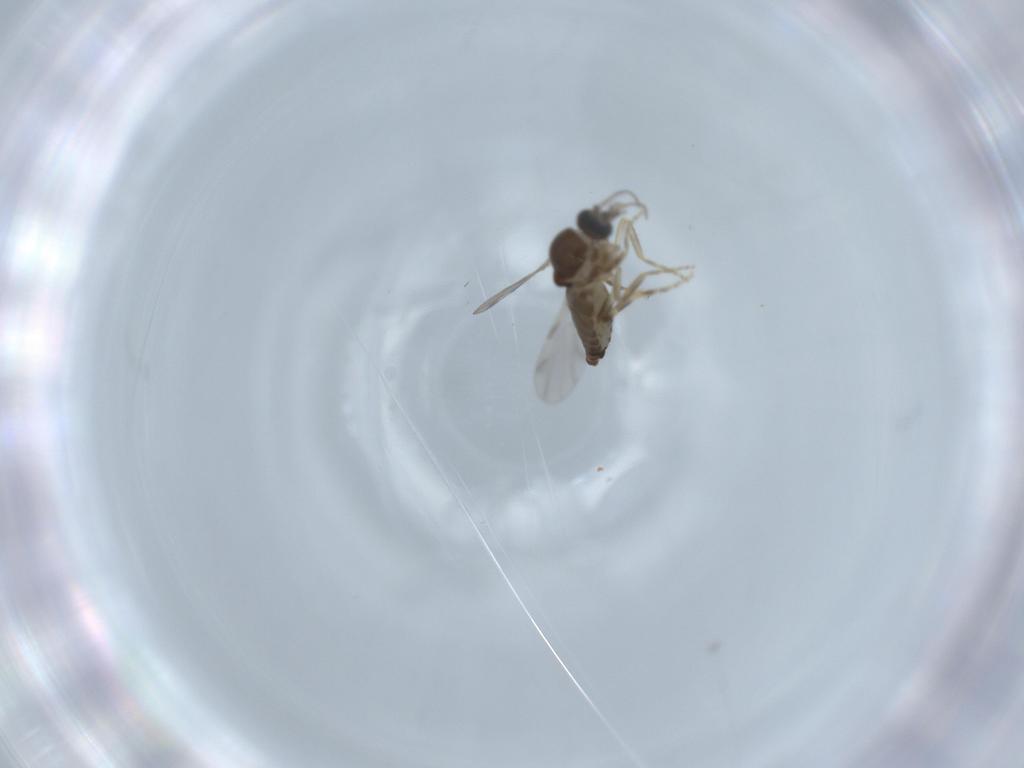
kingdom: Animalia
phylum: Arthropoda
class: Insecta
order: Diptera
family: Ceratopogonidae
